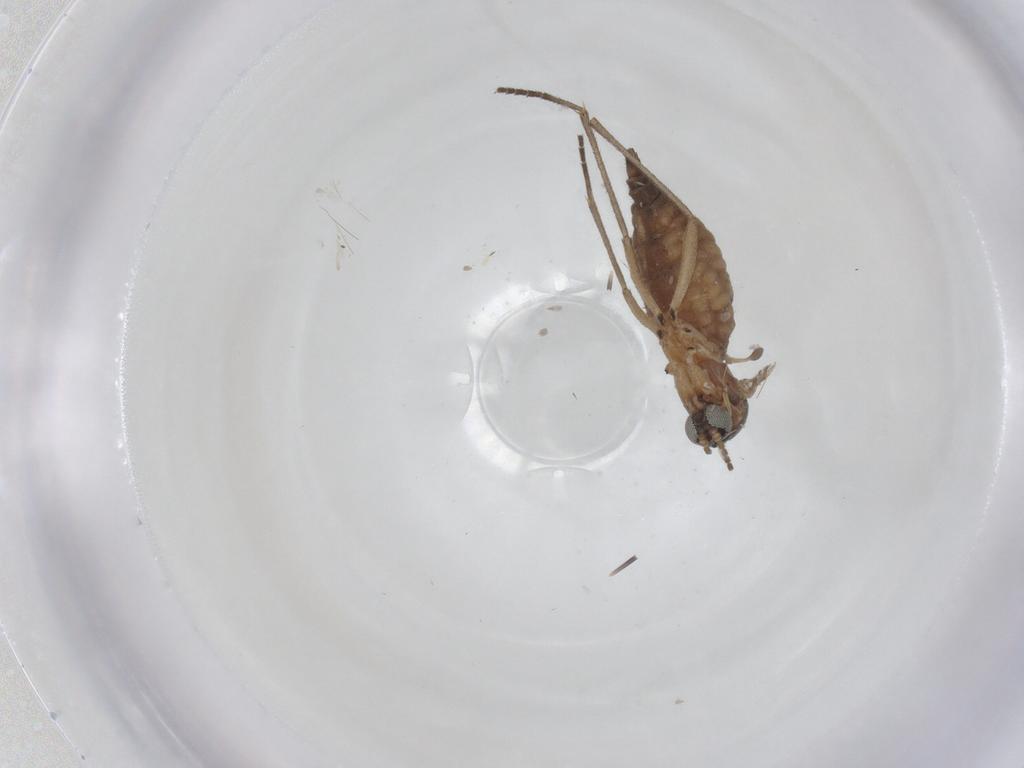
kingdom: Animalia
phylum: Arthropoda
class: Insecta
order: Diptera
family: Sciaridae
